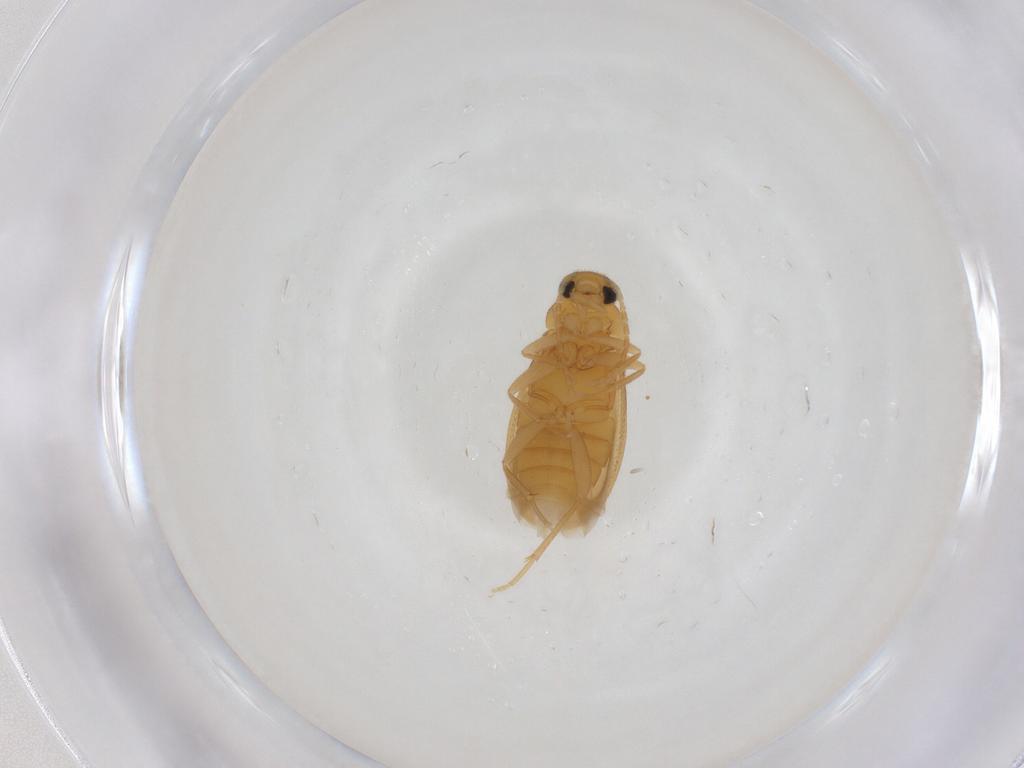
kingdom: Animalia
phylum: Arthropoda
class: Insecta
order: Coleoptera
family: Scraptiidae
